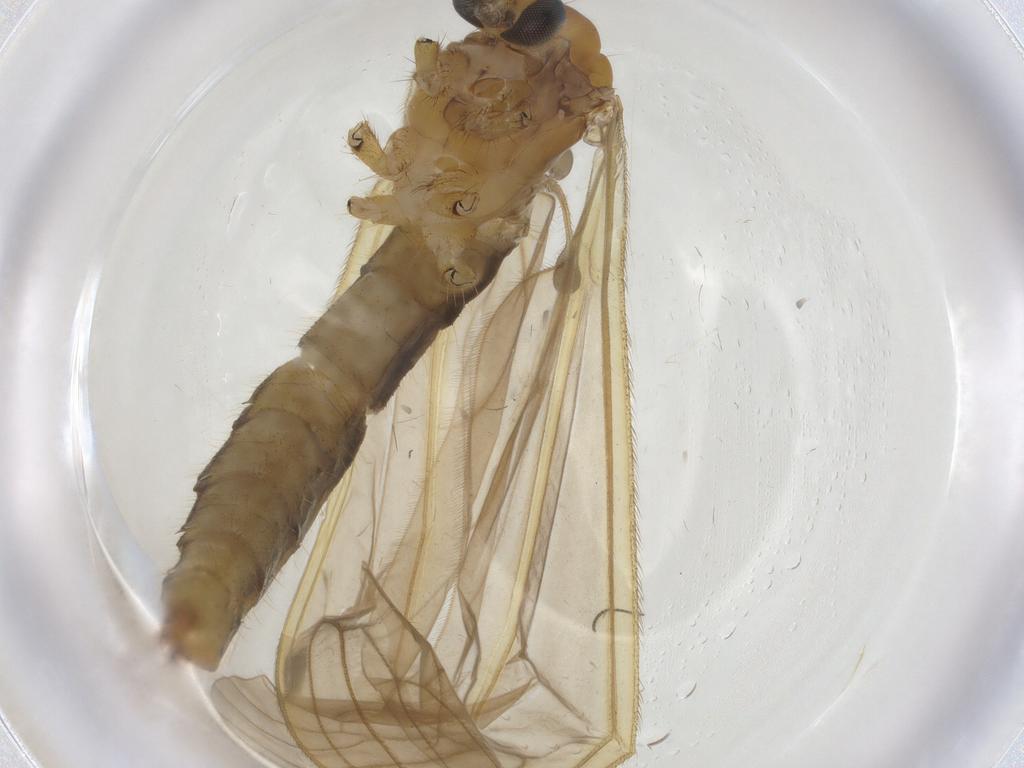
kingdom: Animalia
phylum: Arthropoda
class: Insecta
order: Diptera
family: Limoniidae
